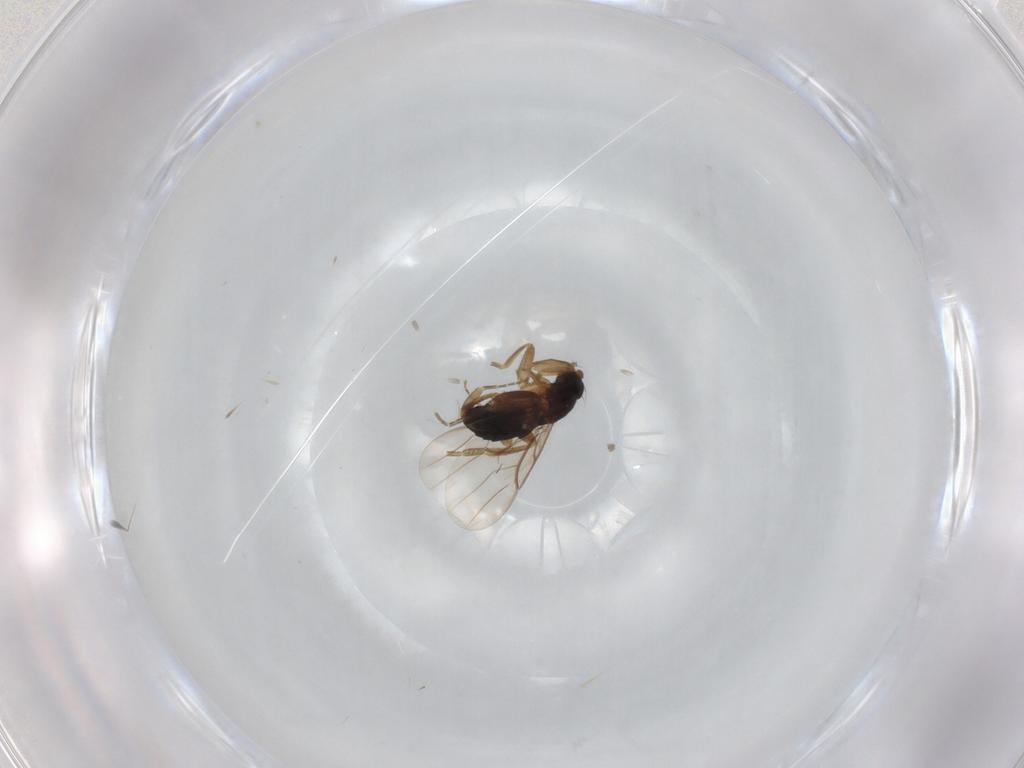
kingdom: Animalia
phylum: Arthropoda
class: Insecta
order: Diptera
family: Phoridae
